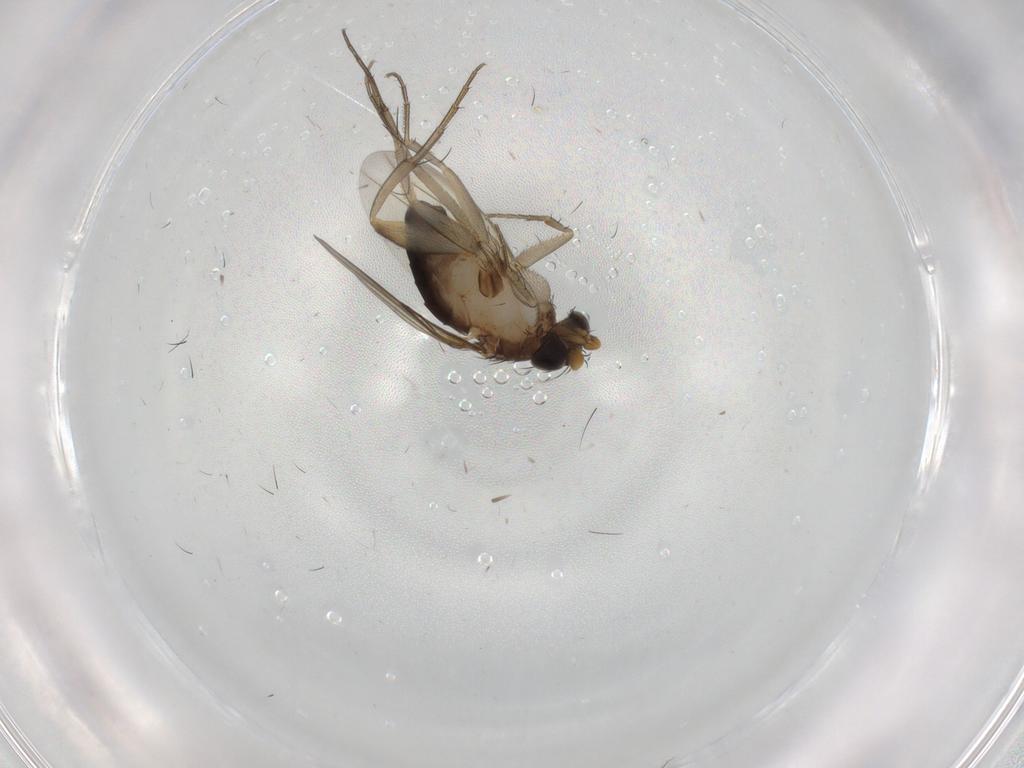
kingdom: Animalia
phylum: Arthropoda
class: Insecta
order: Diptera
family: Phoridae
